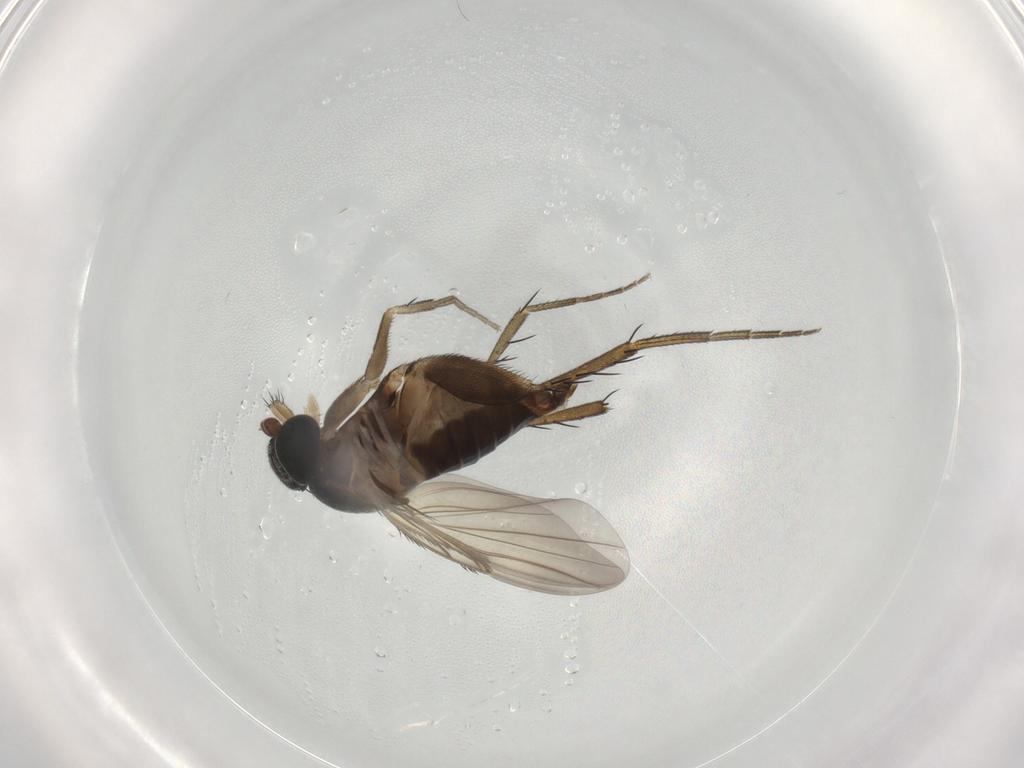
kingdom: Animalia
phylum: Arthropoda
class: Insecta
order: Diptera
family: Phoridae
